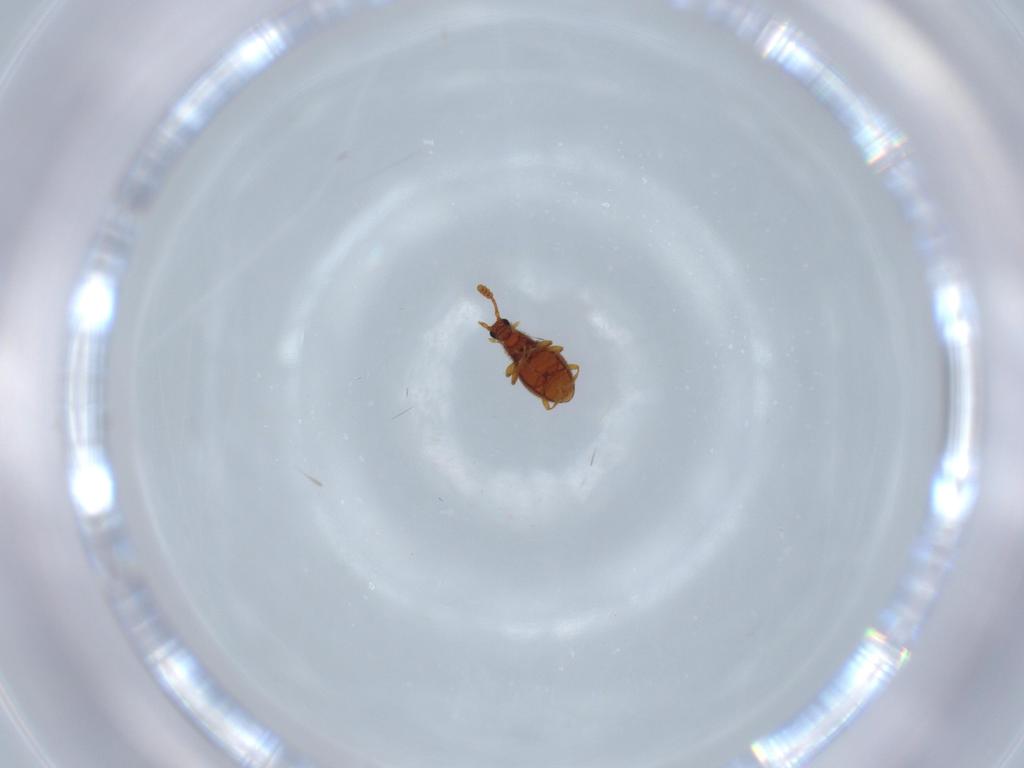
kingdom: Animalia
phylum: Arthropoda
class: Insecta
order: Coleoptera
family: Chrysomelidae
